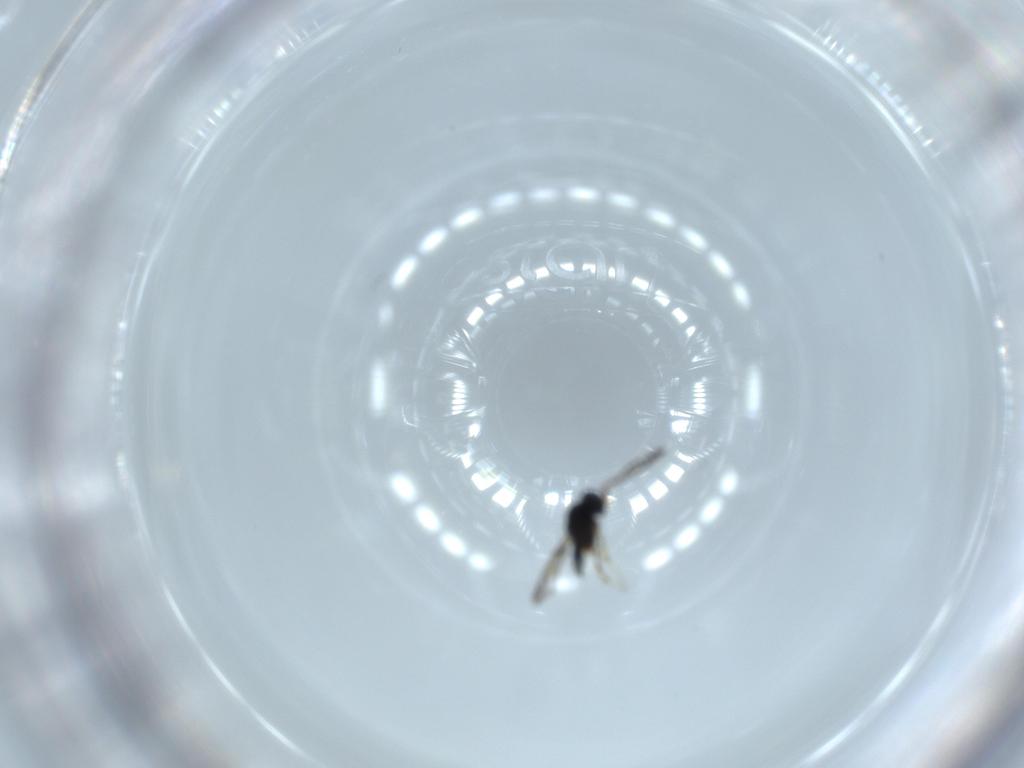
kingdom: Animalia
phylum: Arthropoda
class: Insecta
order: Hymenoptera
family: Scelionidae
